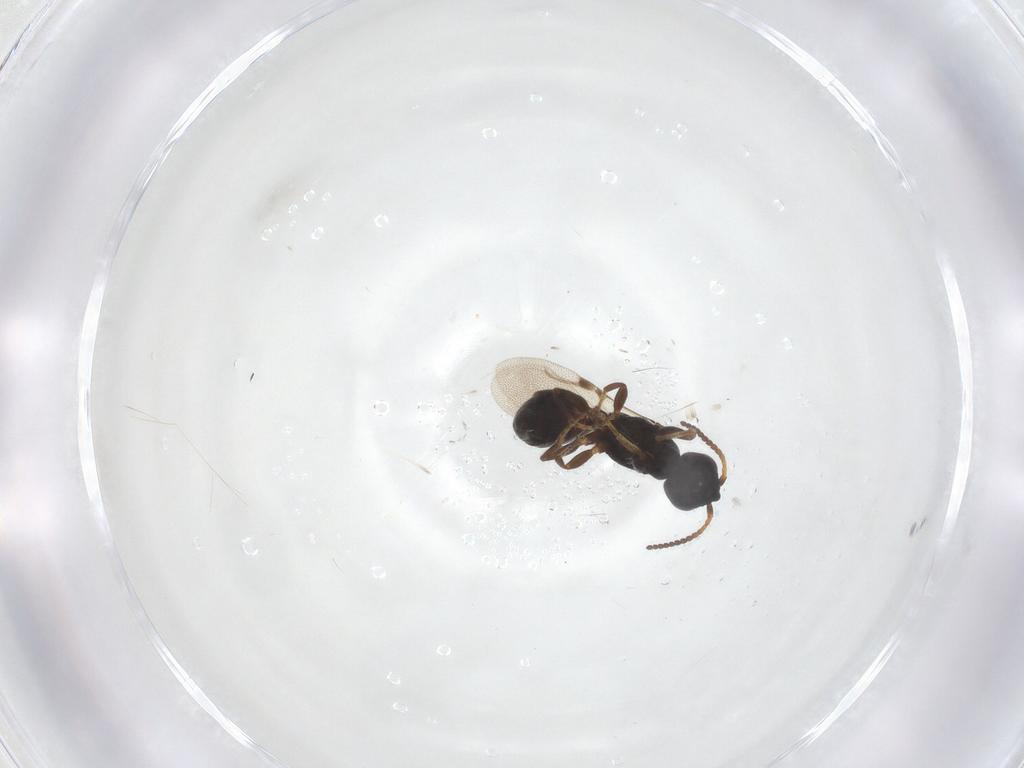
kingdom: Animalia
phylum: Arthropoda
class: Insecta
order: Hymenoptera
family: Bethylidae
